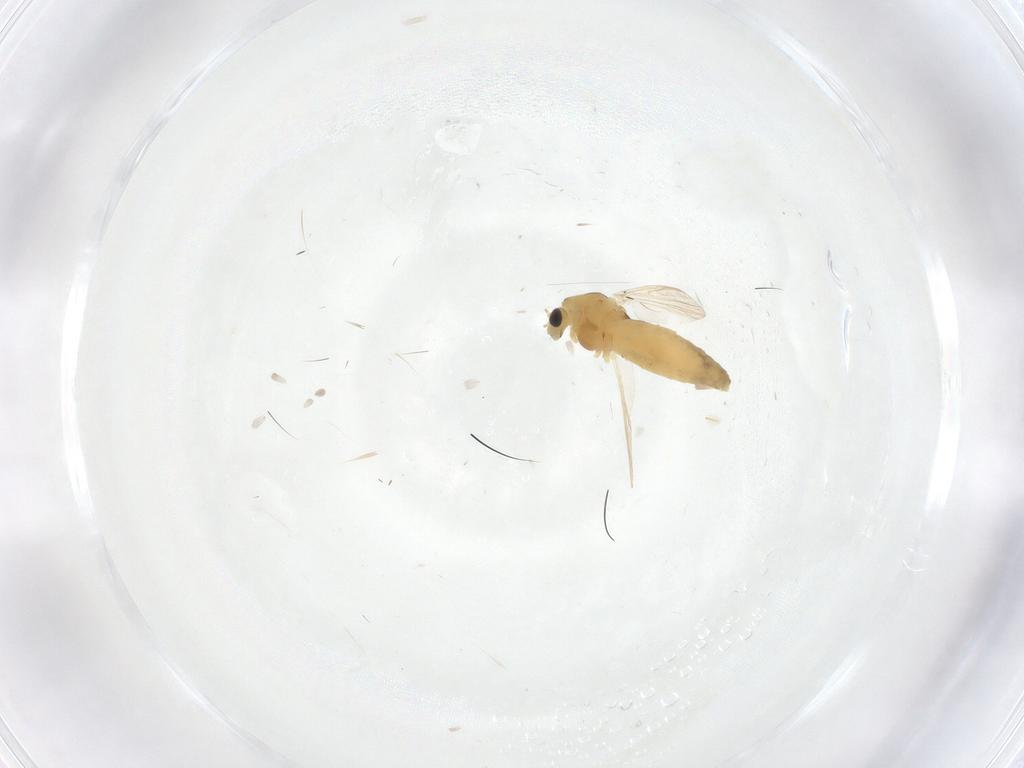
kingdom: Animalia
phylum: Arthropoda
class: Insecta
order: Diptera
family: Chironomidae
